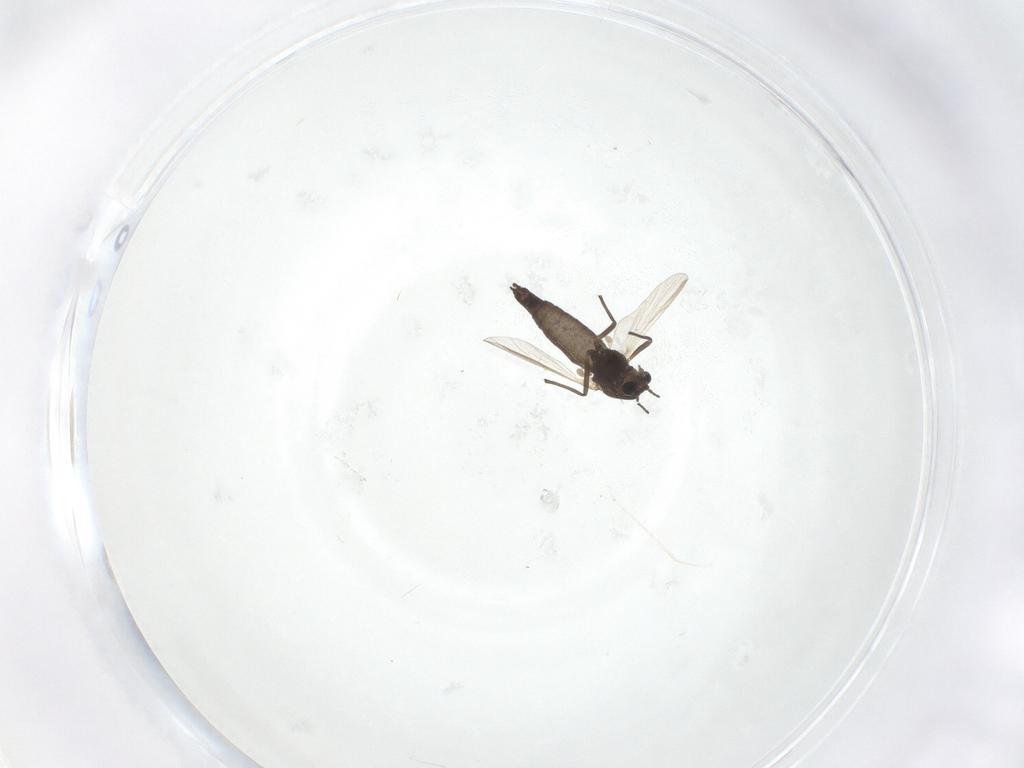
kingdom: Animalia
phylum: Arthropoda
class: Insecta
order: Diptera
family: Chironomidae
